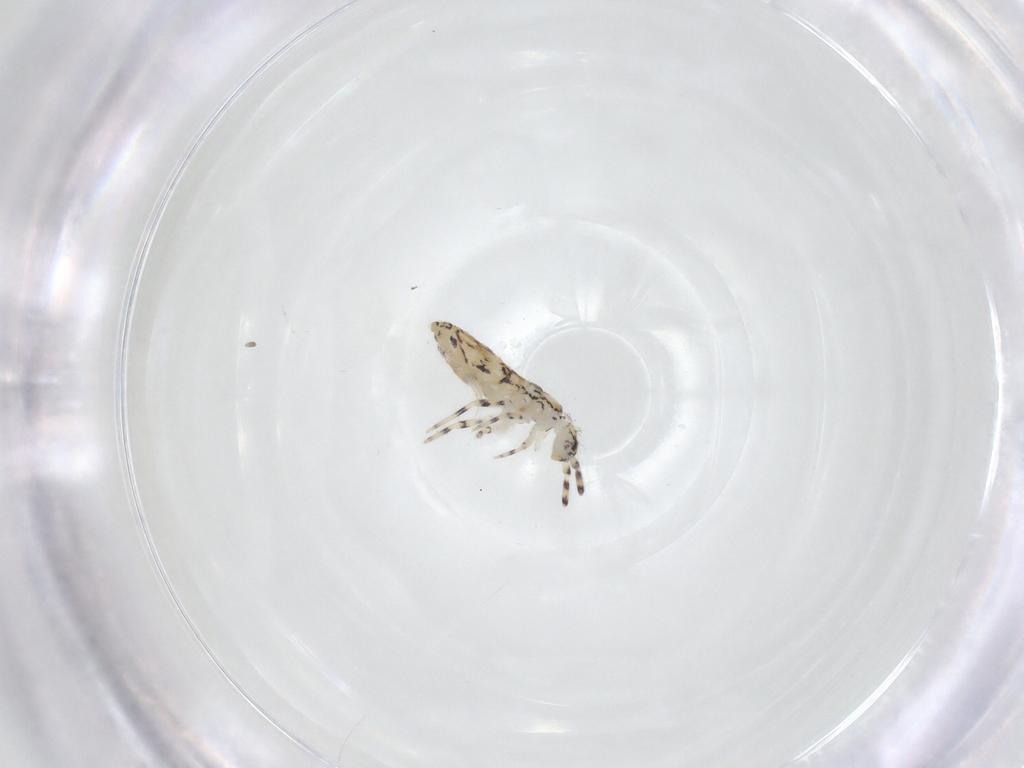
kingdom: Animalia
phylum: Arthropoda
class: Collembola
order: Entomobryomorpha
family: Entomobryidae
